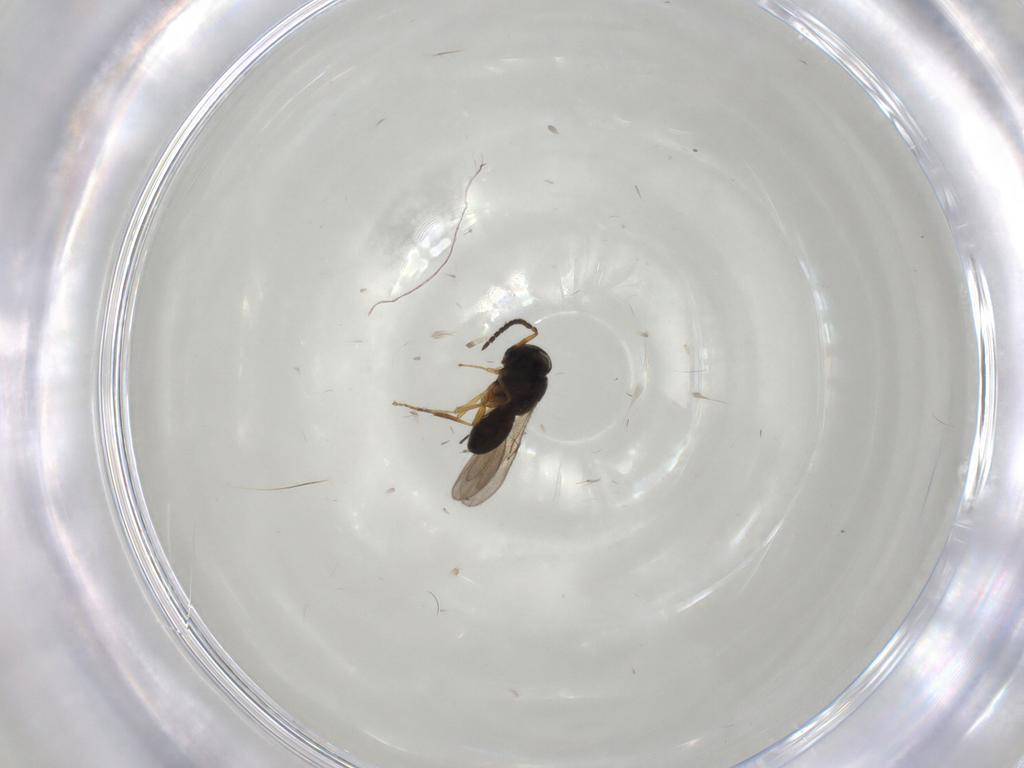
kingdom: Animalia
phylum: Arthropoda
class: Insecta
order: Hymenoptera
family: Scelionidae
